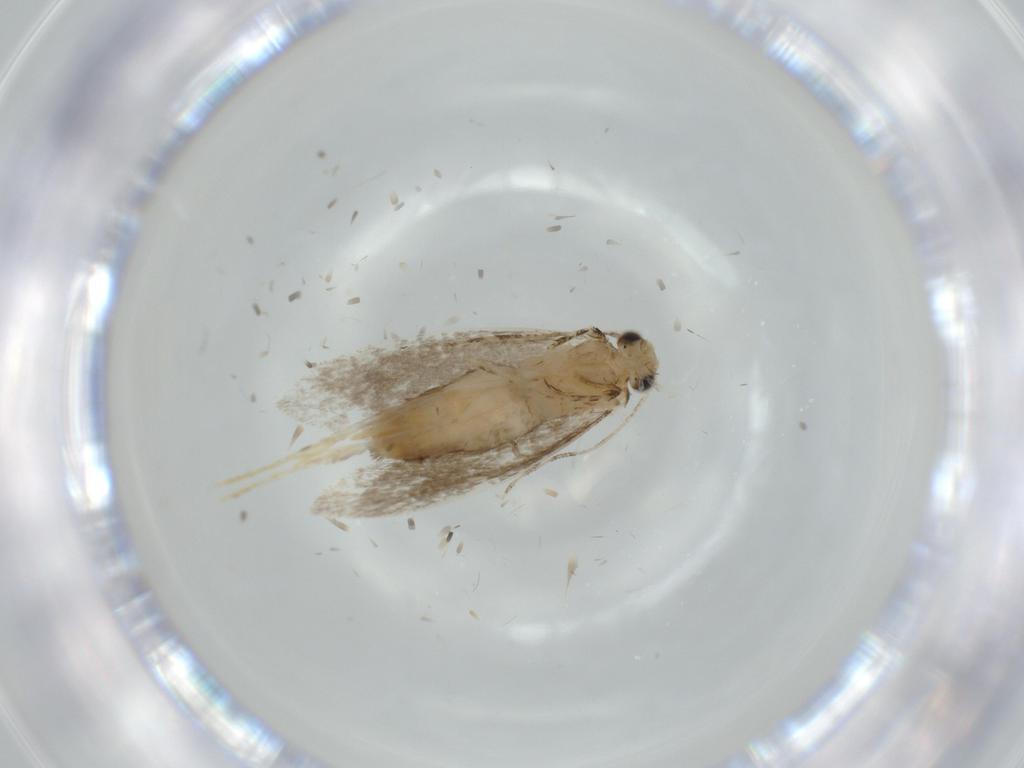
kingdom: Animalia
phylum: Arthropoda
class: Insecta
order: Lepidoptera
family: Tineidae
